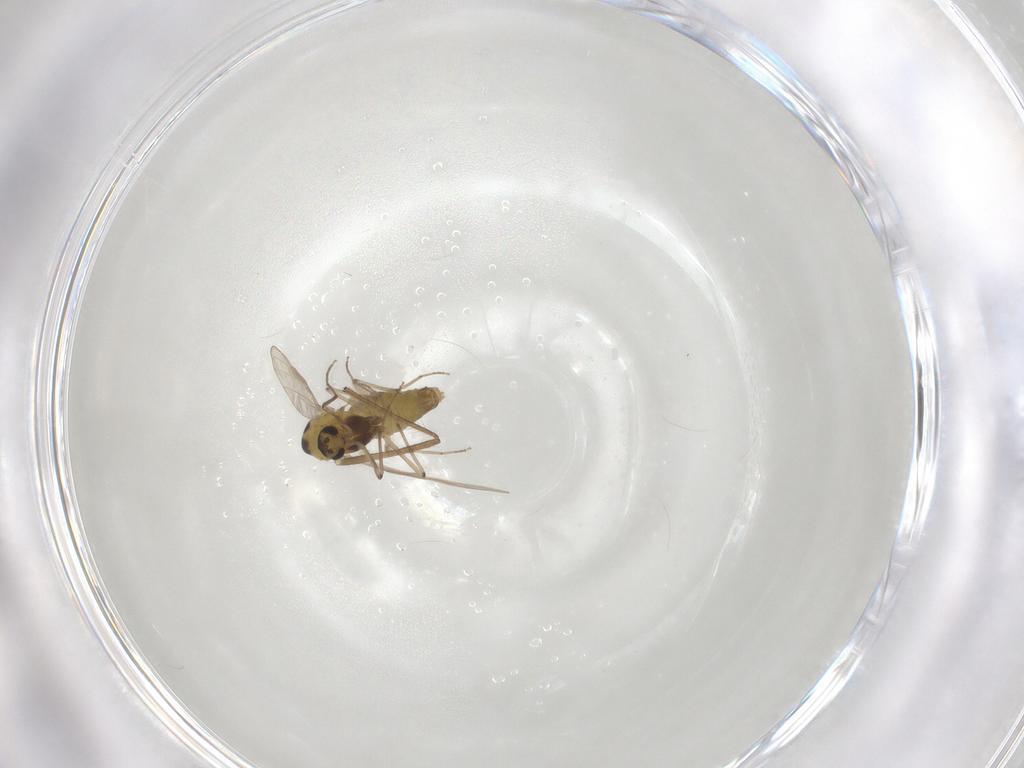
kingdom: Animalia
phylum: Arthropoda
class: Insecta
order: Diptera
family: Chironomidae
